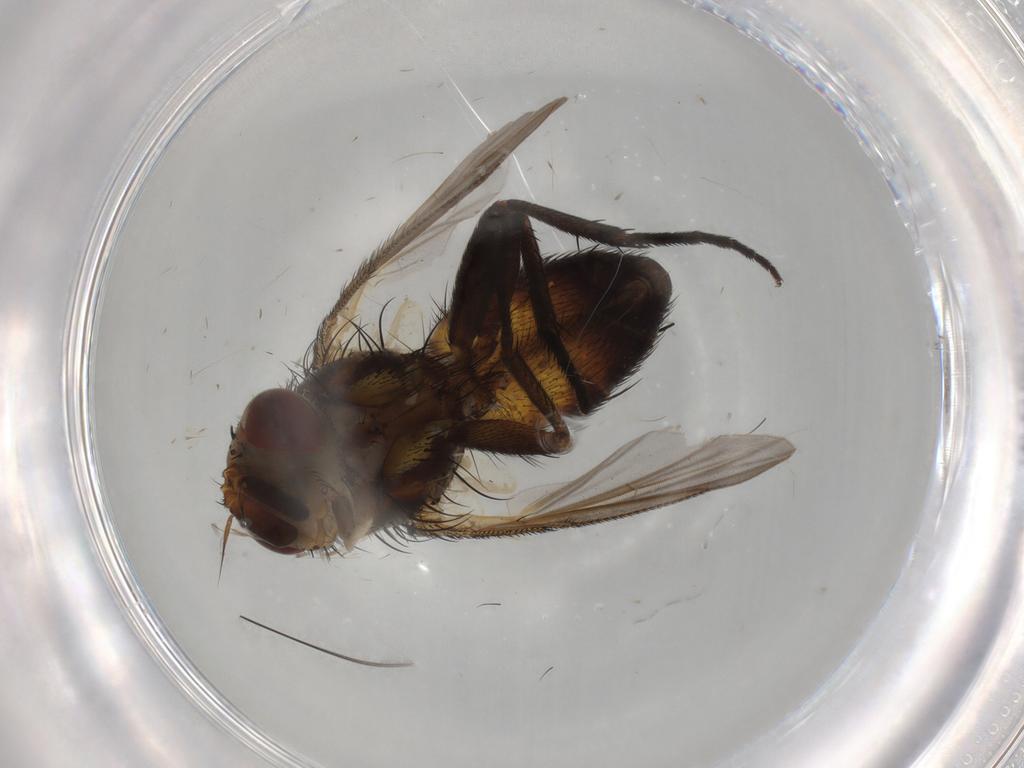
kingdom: Animalia
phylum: Arthropoda
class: Insecta
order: Diptera
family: Tachinidae
